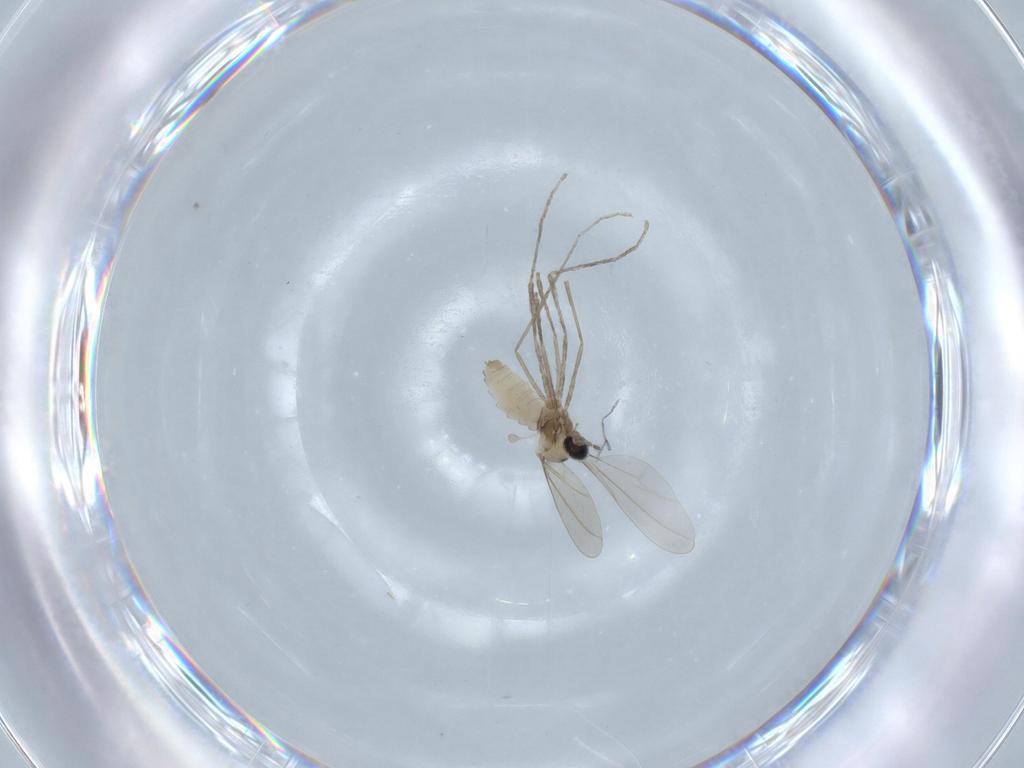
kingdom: Animalia
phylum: Arthropoda
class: Insecta
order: Diptera
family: Cecidomyiidae
